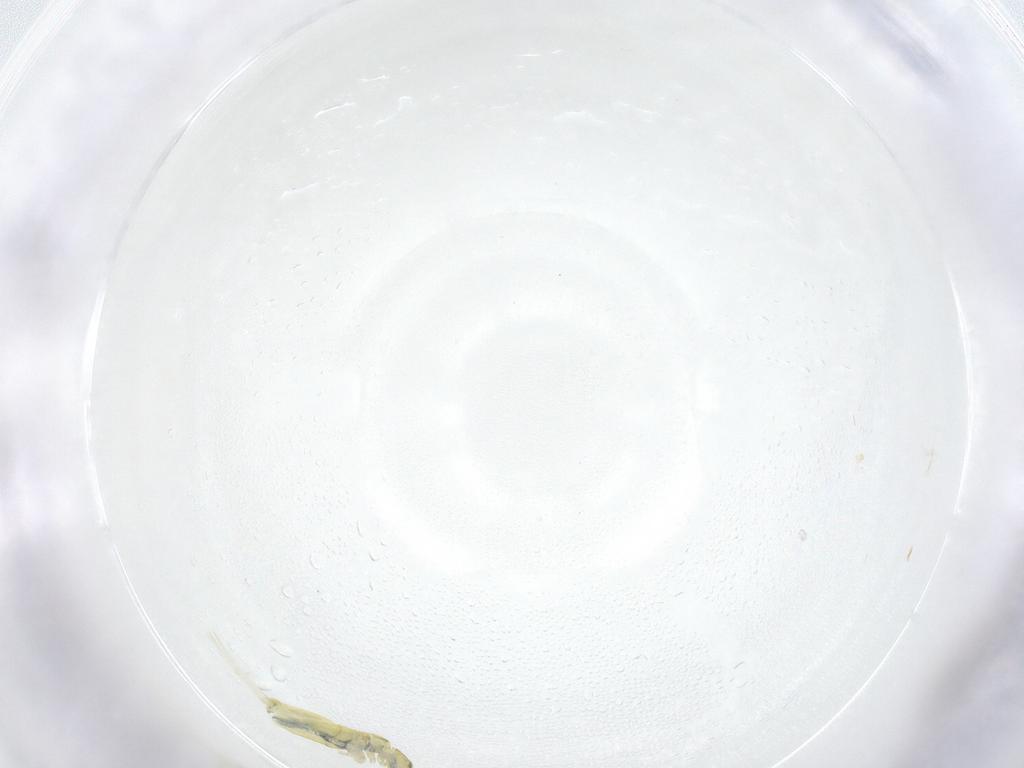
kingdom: Animalia
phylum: Arthropoda
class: Collembola
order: Entomobryomorpha
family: Paronellidae
